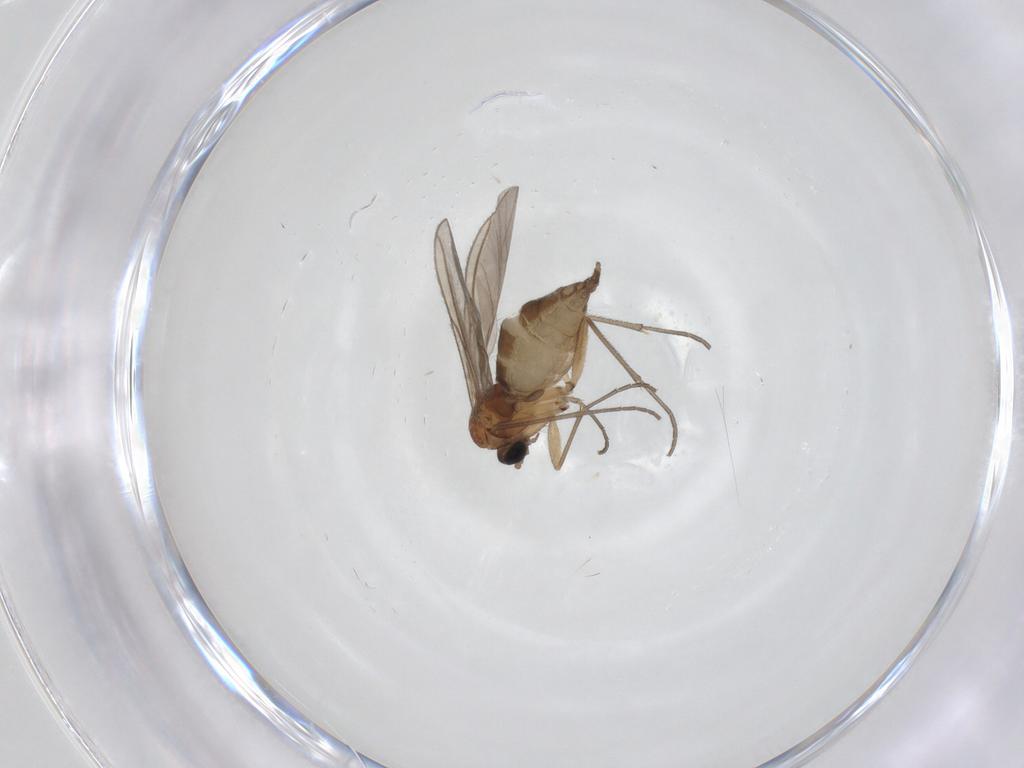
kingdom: Animalia
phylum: Arthropoda
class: Insecta
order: Diptera
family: Sciaridae
